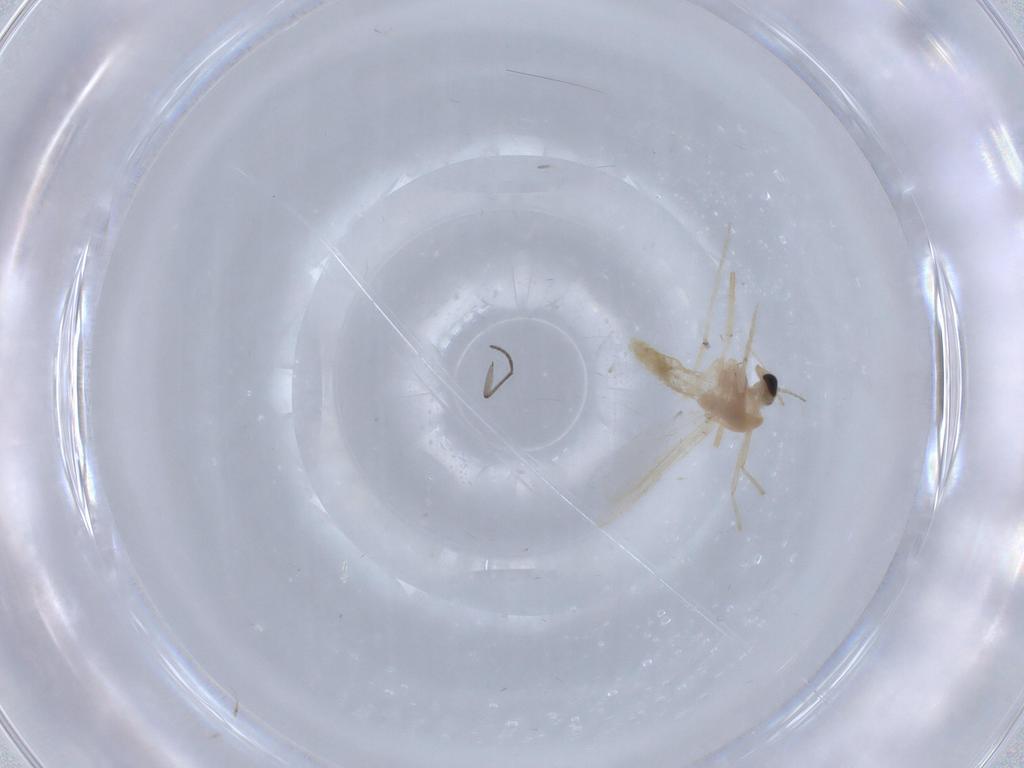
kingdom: Animalia
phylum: Arthropoda
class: Insecta
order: Diptera
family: Chironomidae
